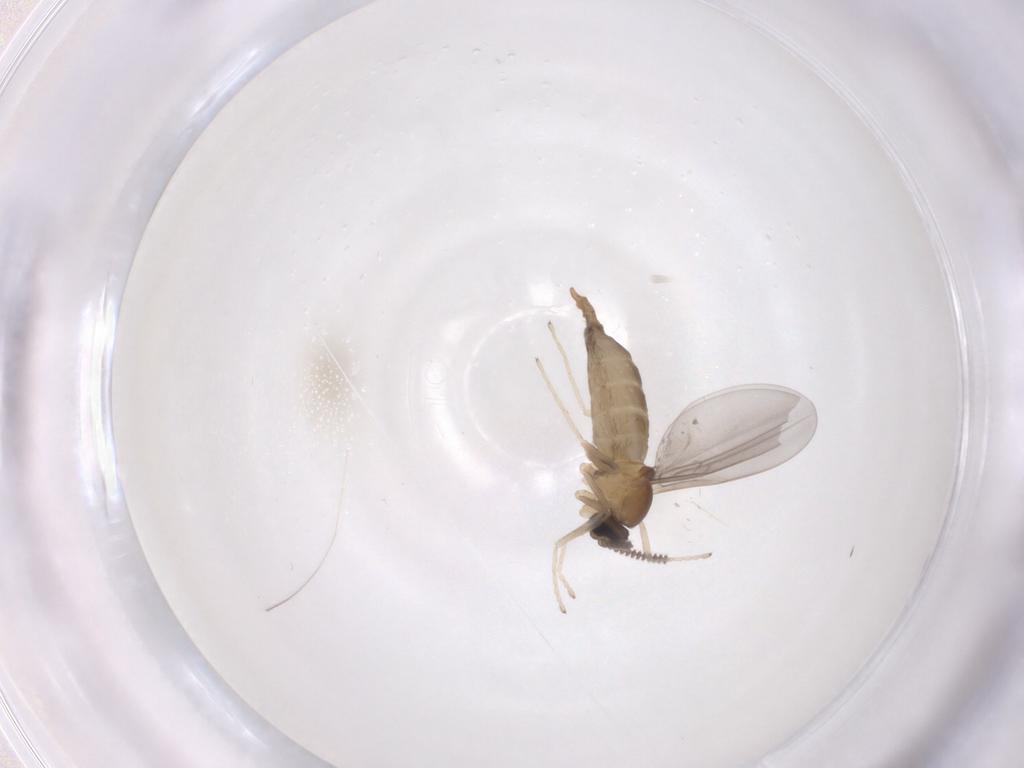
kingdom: Animalia
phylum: Arthropoda
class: Insecta
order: Diptera
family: Cecidomyiidae
